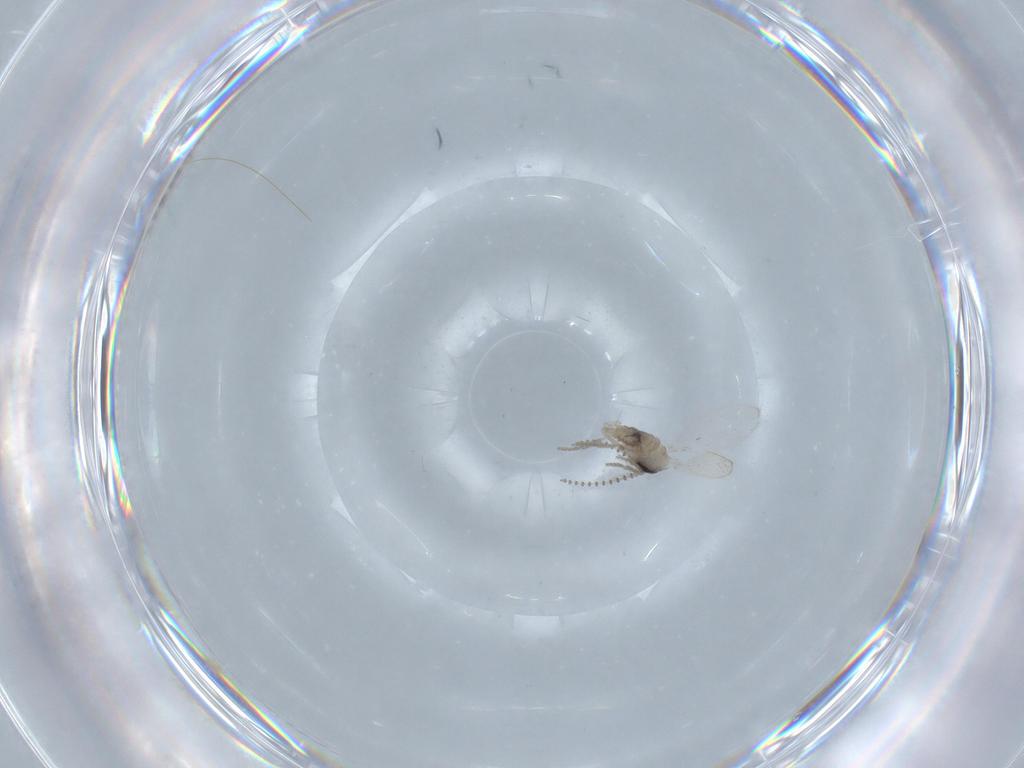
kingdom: Animalia
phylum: Arthropoda
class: Insecta
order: Diptera
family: Psychodidae
